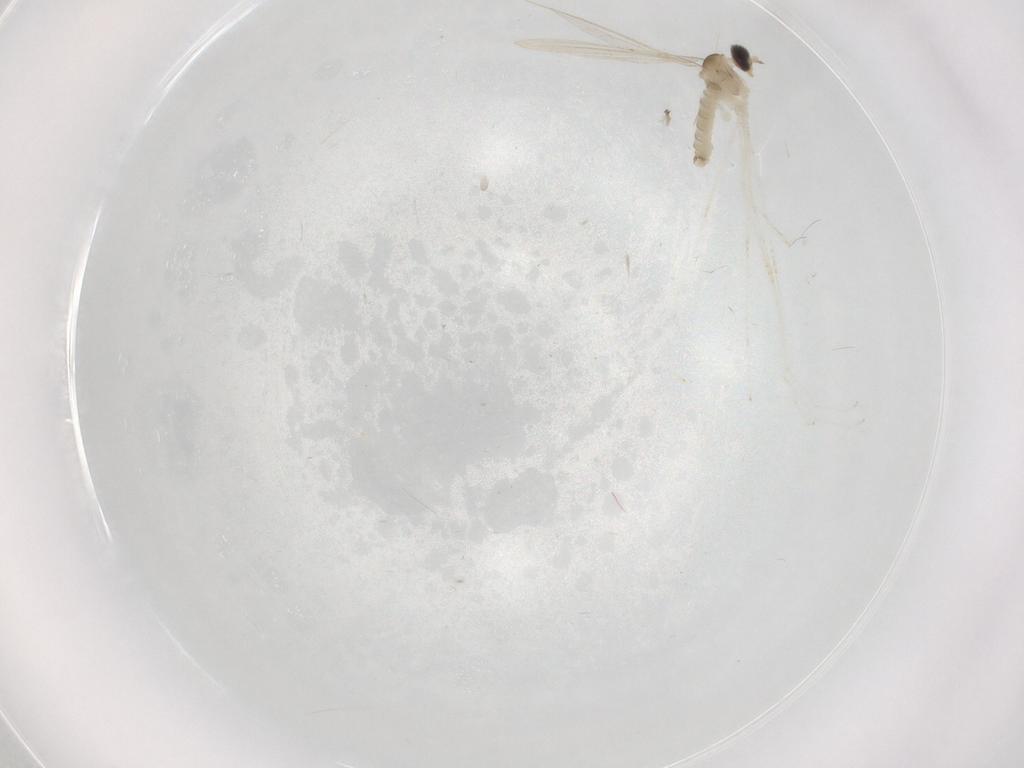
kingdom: Animalia
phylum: Arthropoda
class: Insecta
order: Diptera
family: Cecidomyiidae
